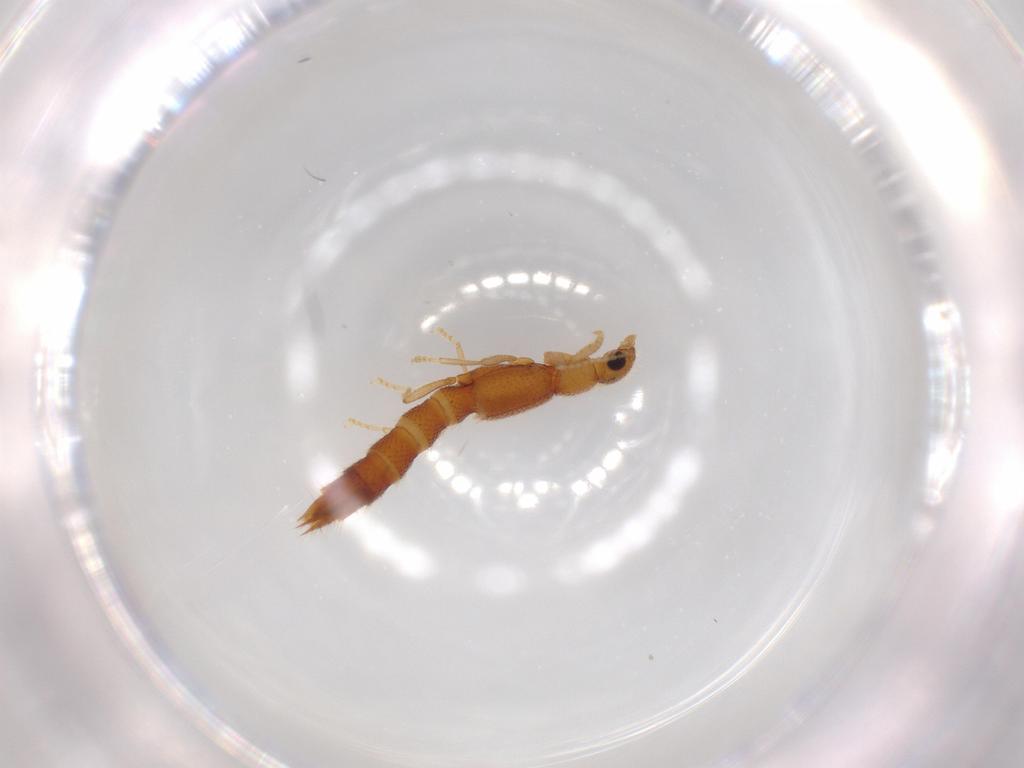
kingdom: Animalia
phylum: Arthropoda
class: Insecta
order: Coleoptera
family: Staphylinidae
